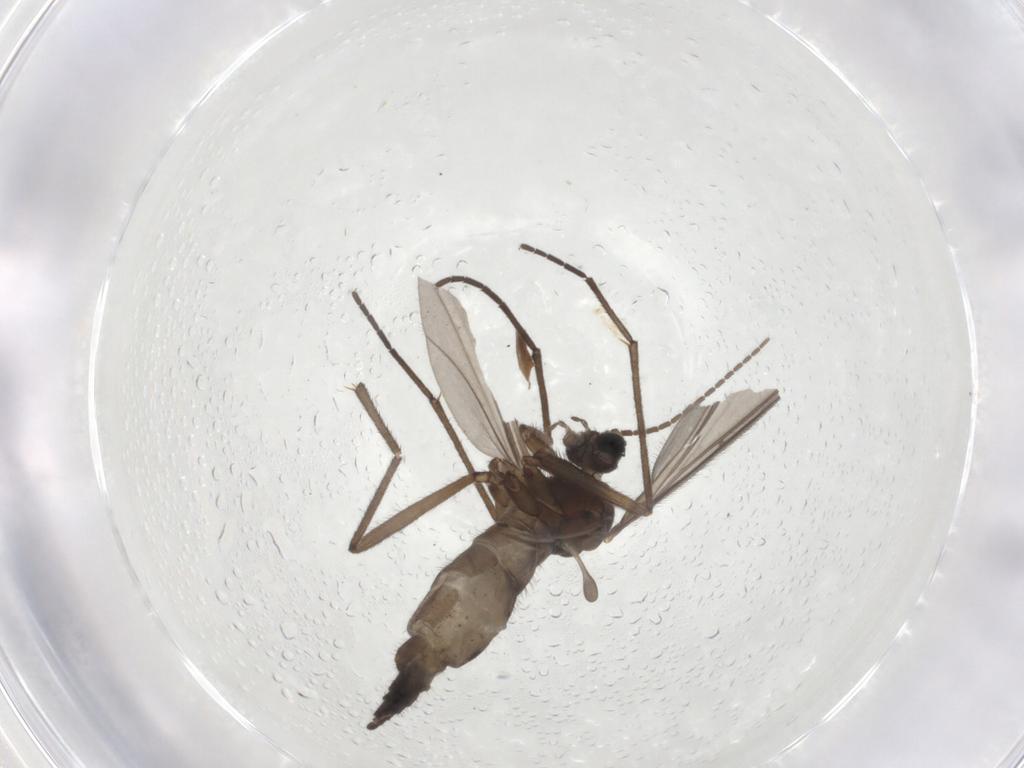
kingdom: Animalia
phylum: Arthropoda
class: Insecta
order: Diptera
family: Sciaridae
